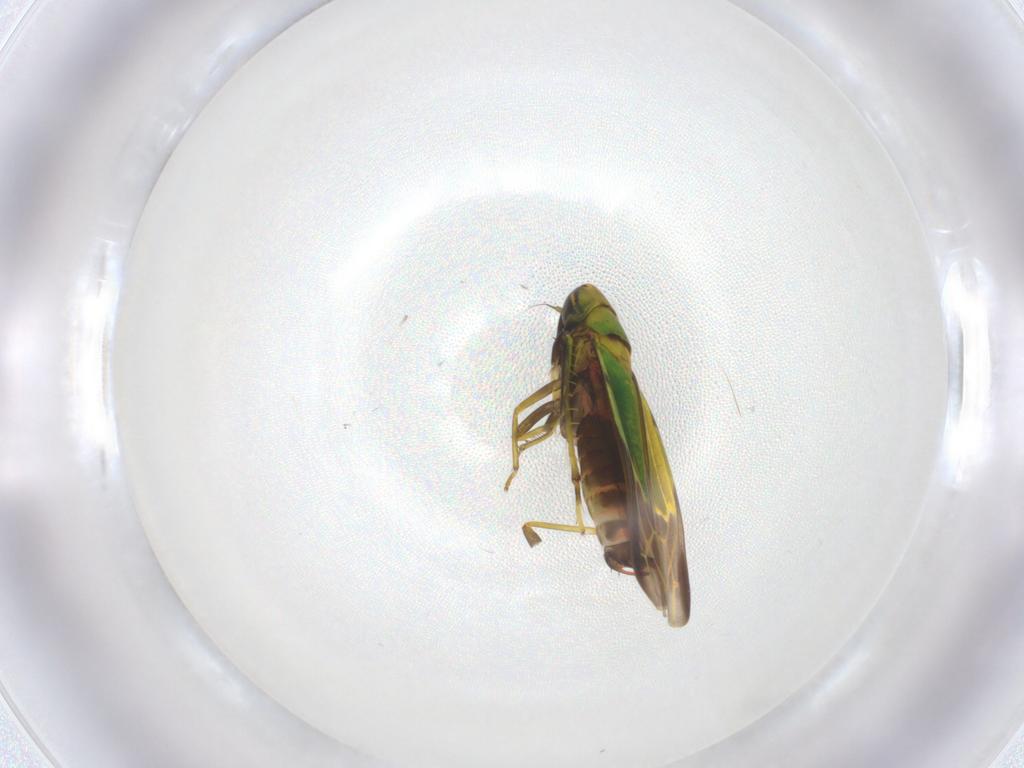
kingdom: Animalia
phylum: Arthropoda
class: Insecta
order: Hemiptera
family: Cicadellidae
